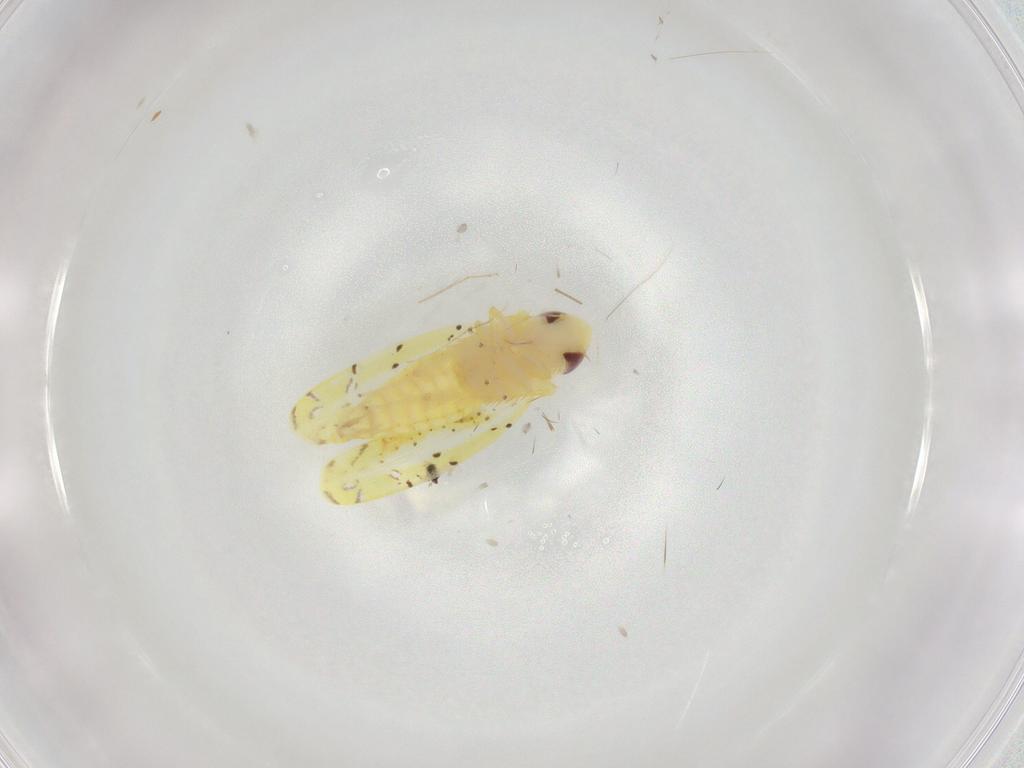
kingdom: Animalia
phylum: Arthropoda
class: Insecta
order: Hemiptera
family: Cicadellidae
